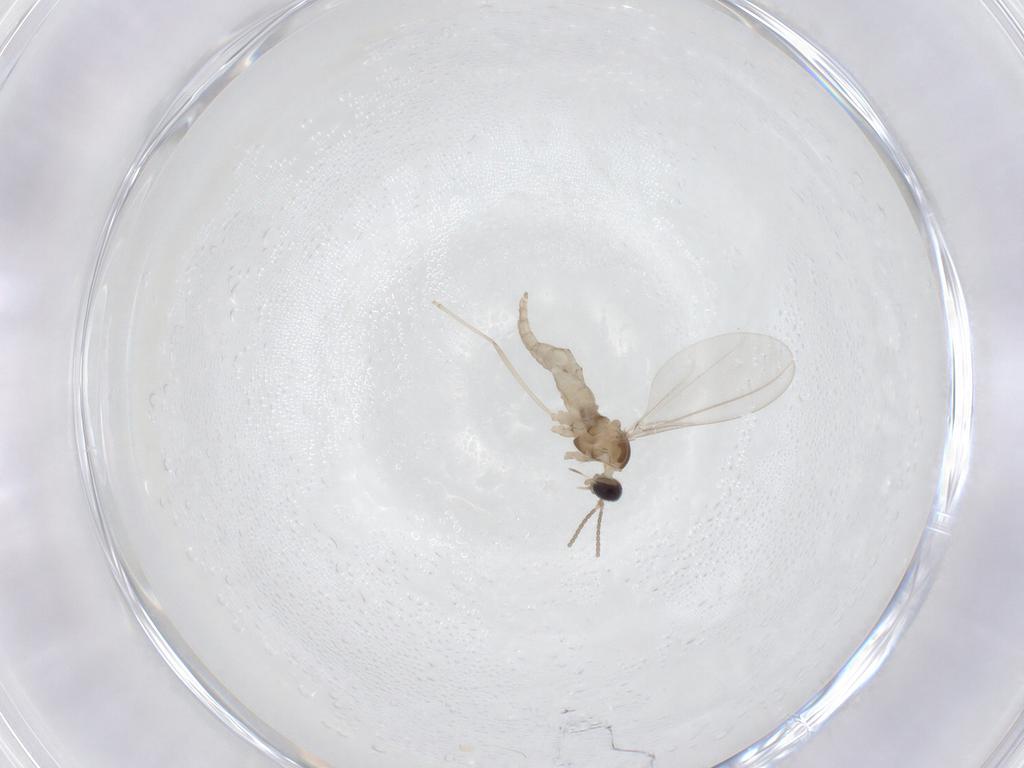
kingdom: Animalia
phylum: Arthropoda
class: Insecta
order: Diptera
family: Cecidomyiidae
